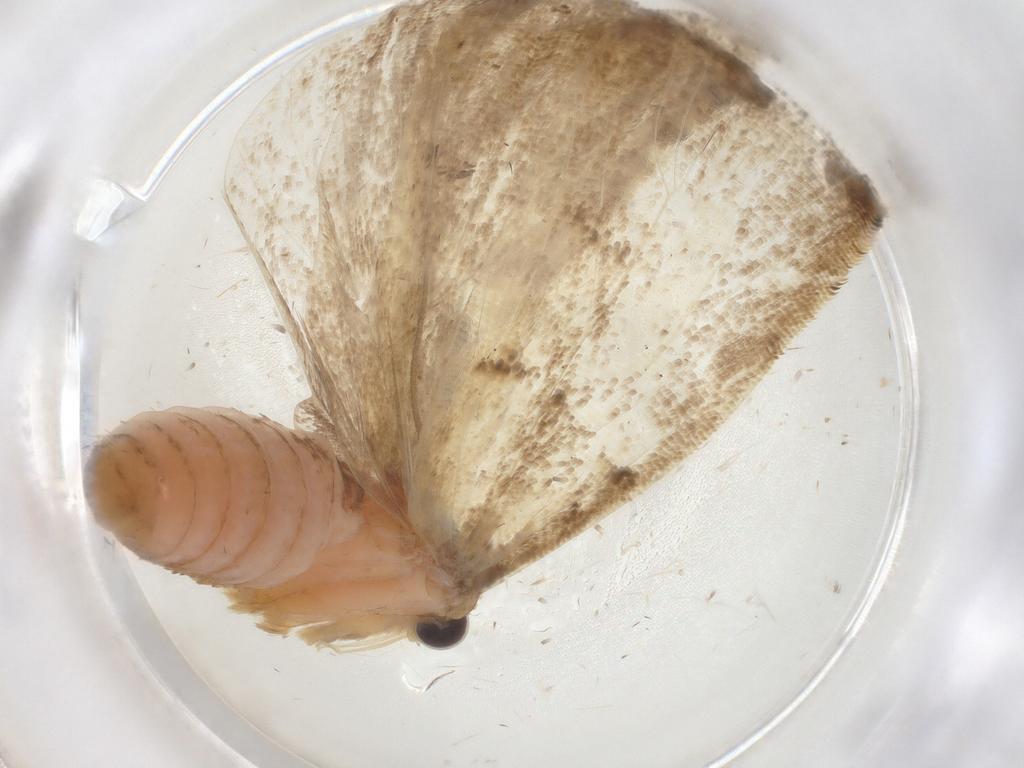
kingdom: Animalia
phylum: Arthropoda
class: Insecta
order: Lepidoptera
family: Tortricidae
